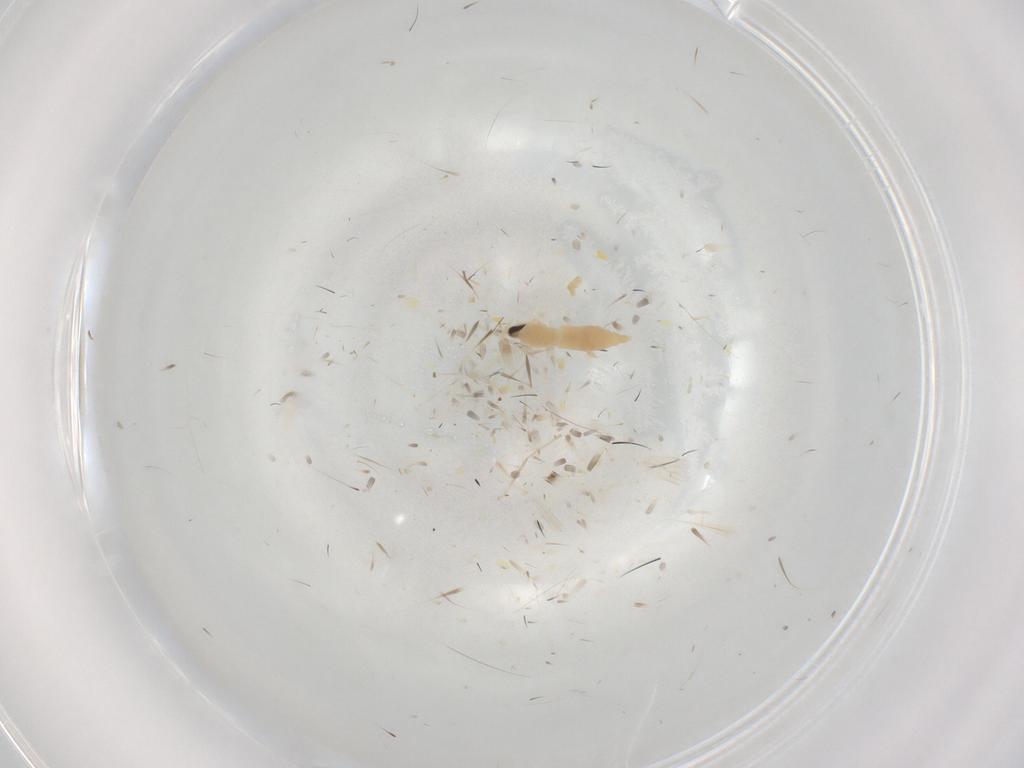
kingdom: Animalia
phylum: Arthropoda
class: Insecta
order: Diptera
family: Cecidomyiidae
